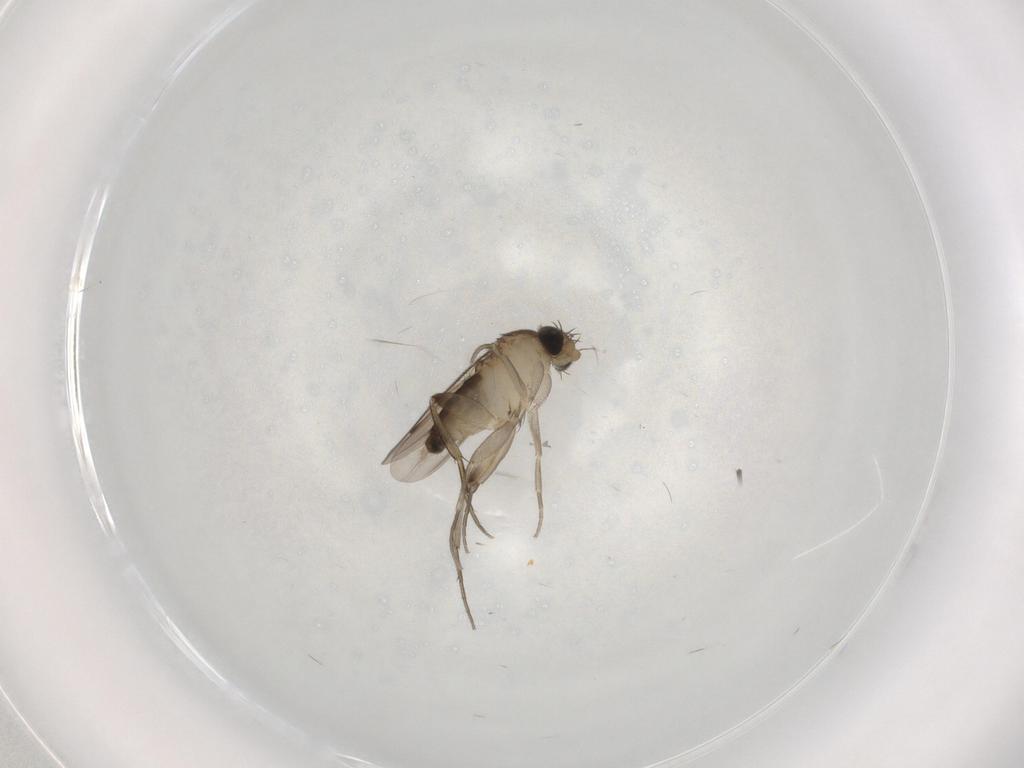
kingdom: Animalia
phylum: Arthropoda
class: Insecta
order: Diptera
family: Phoridae
